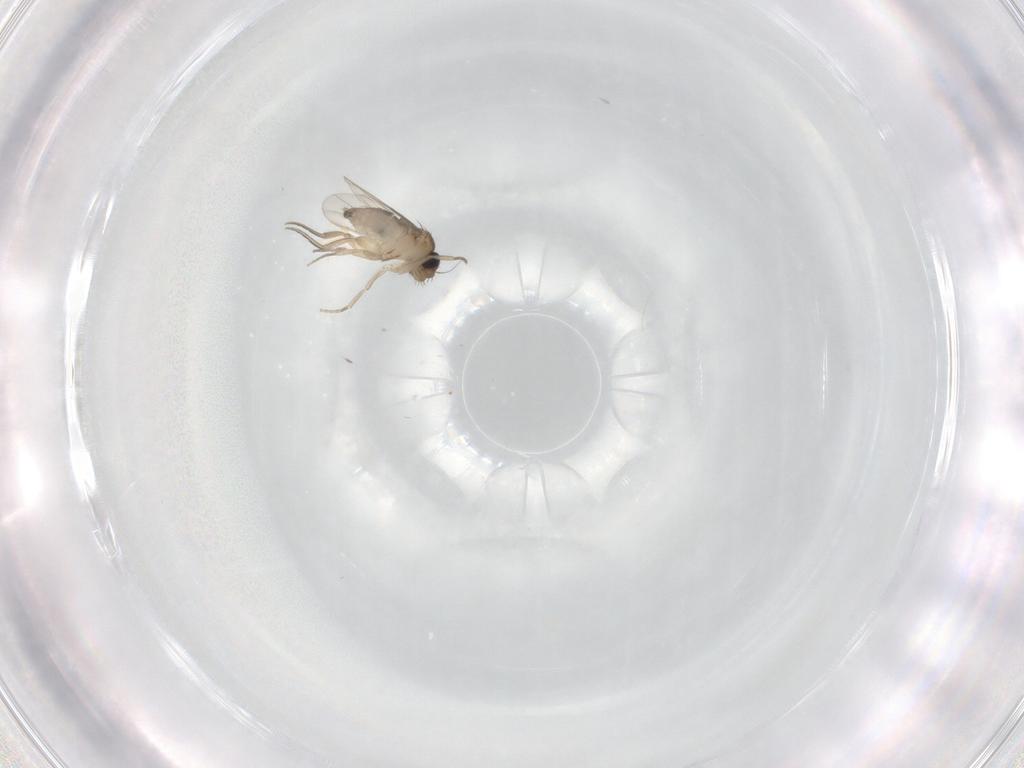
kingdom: Animalia
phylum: Arthropoda
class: Insecta
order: Diptera
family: Phoridae
